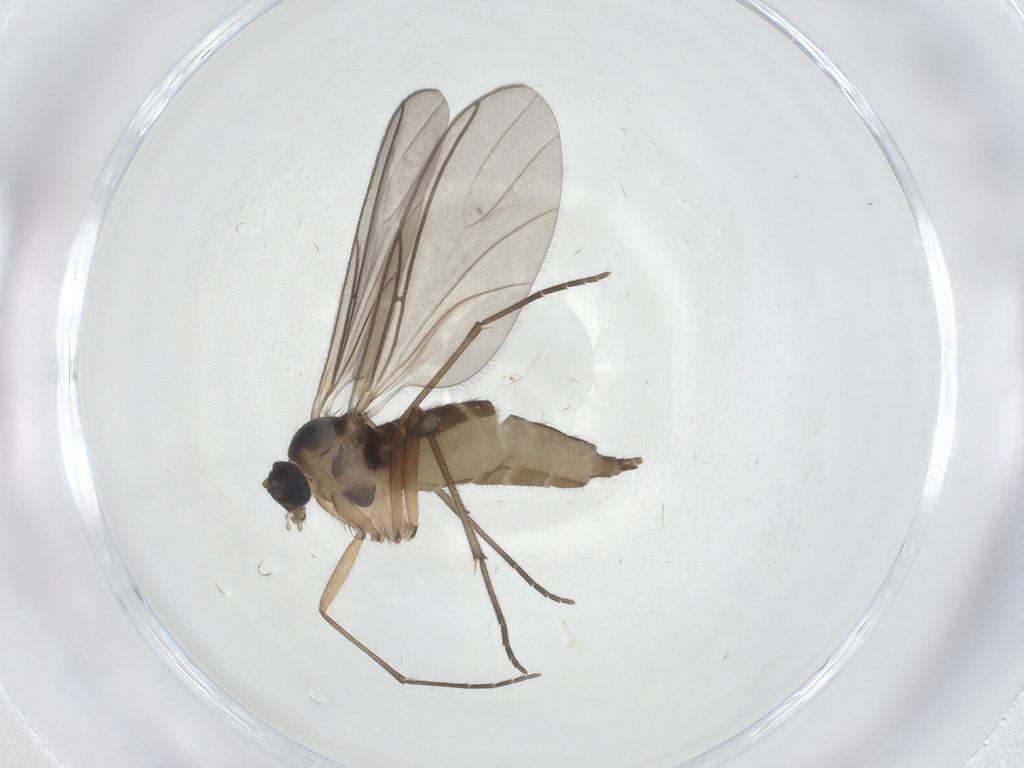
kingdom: Animalia
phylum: Arthropoda
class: Insecta
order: Diptera
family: Sciaridae
